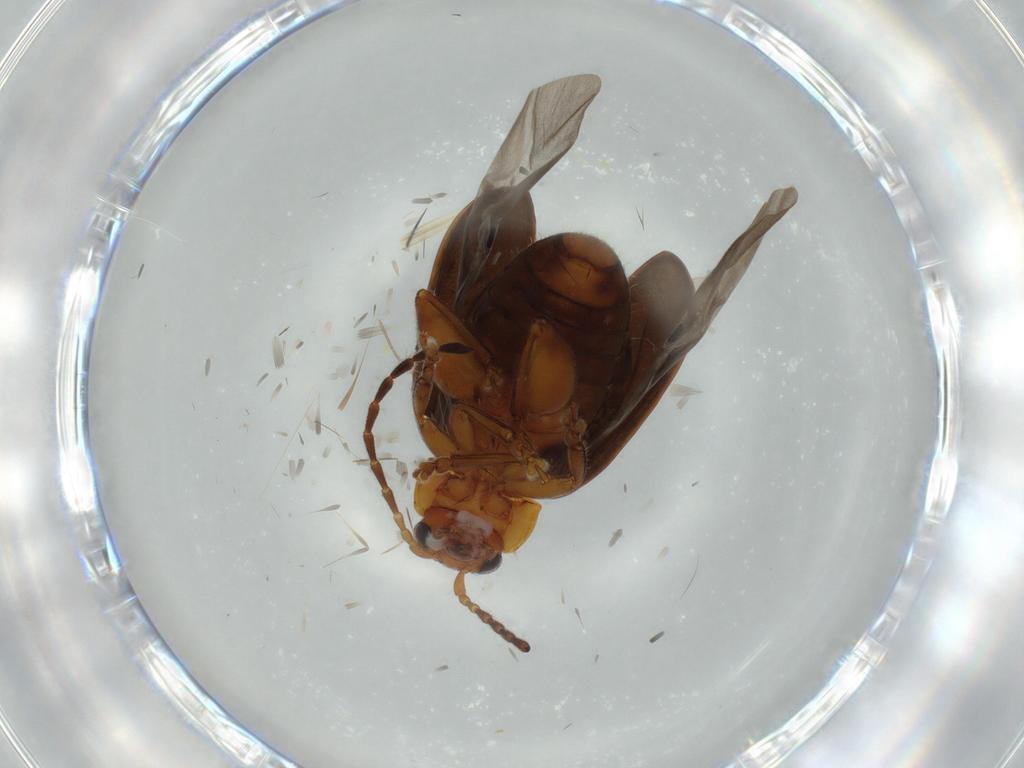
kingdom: Animalia
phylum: Arthropoda
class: Insecta
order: Coleoptera
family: Chrysomelidae
